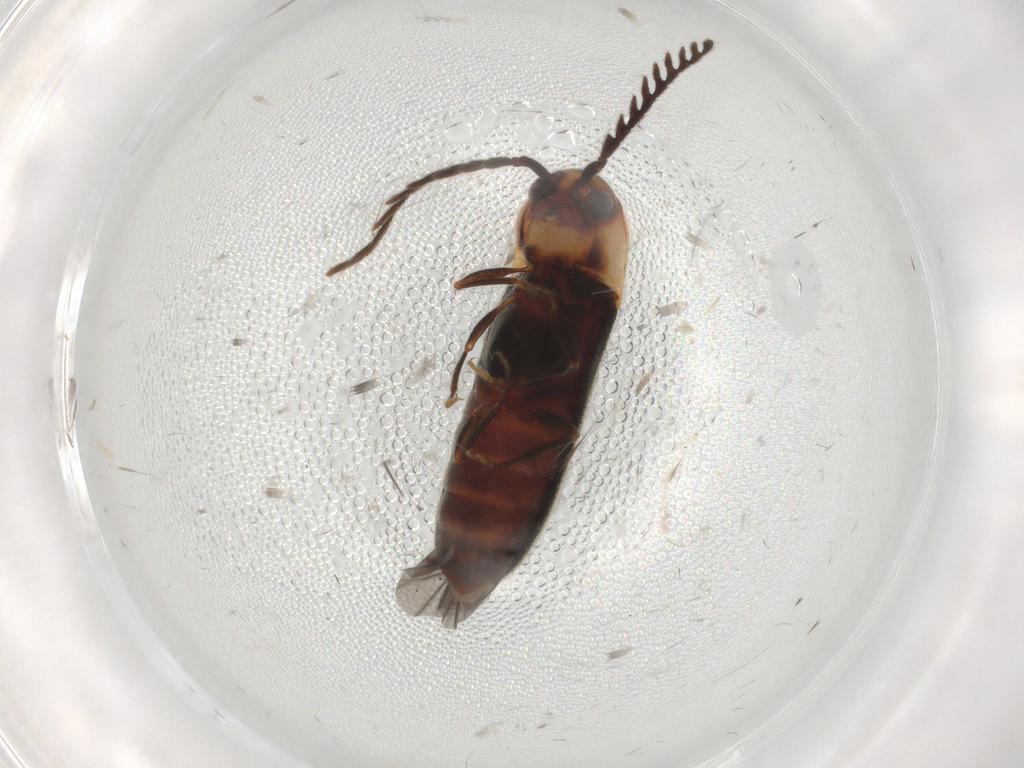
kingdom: Animalia
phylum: Arthropoda
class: Insecta
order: Coleoptera
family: Eucnemidae
